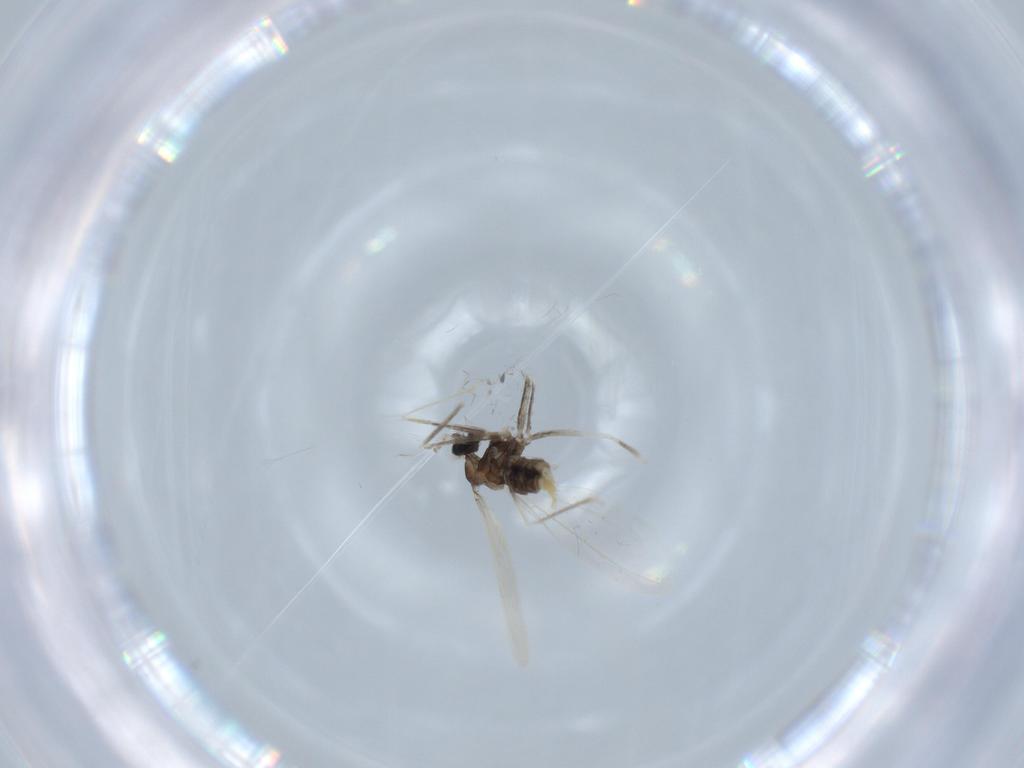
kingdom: Animalia
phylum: Arthropoda
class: Insecta
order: Diptera
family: Cecidomyiidae
